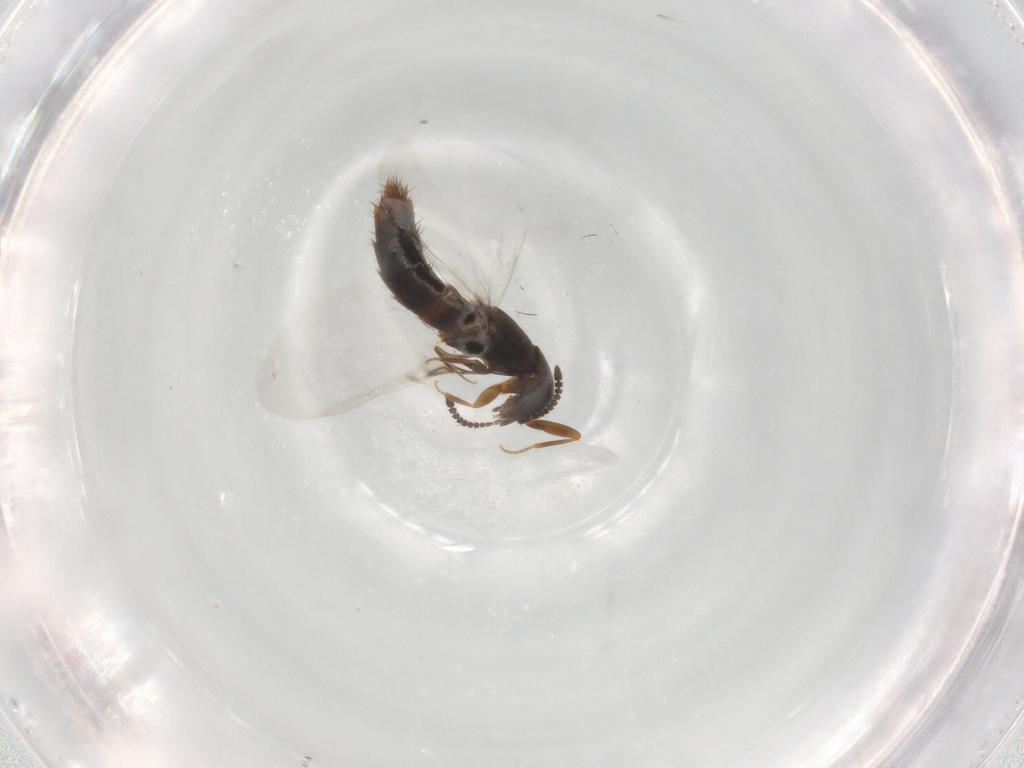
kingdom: Animalia
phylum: Arthropoda
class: Insecta
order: Coleoptera
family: Staphylinidae
